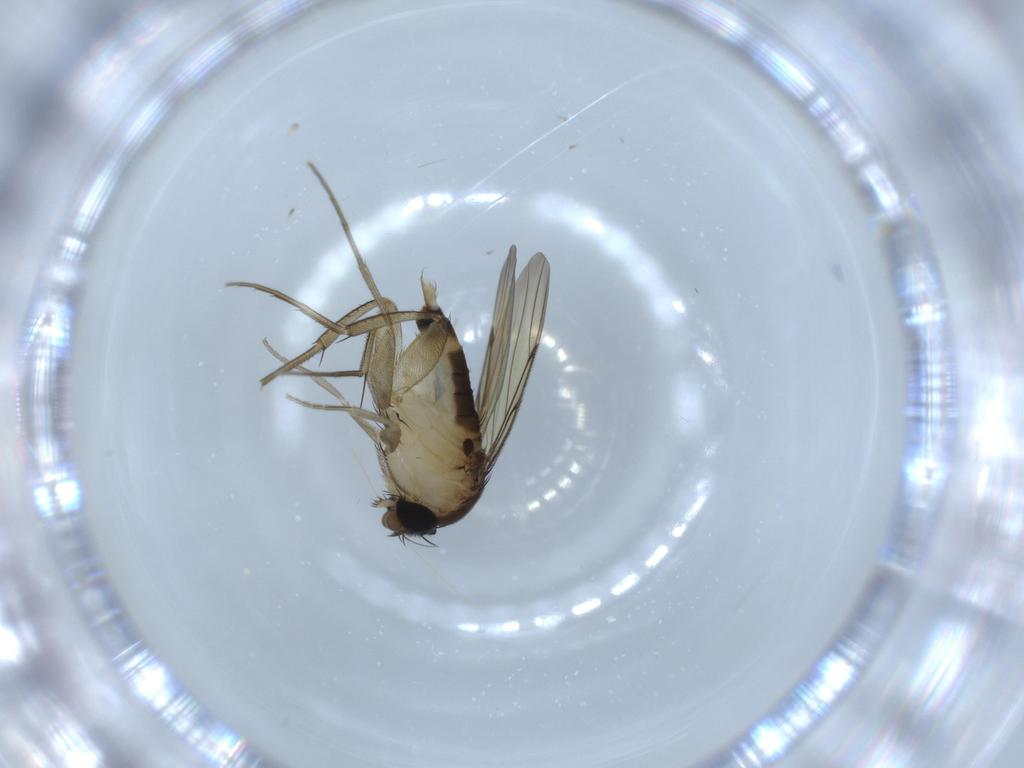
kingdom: Animalia
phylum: Arthropoda
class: Insecta
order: Diptera
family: Phoridae
